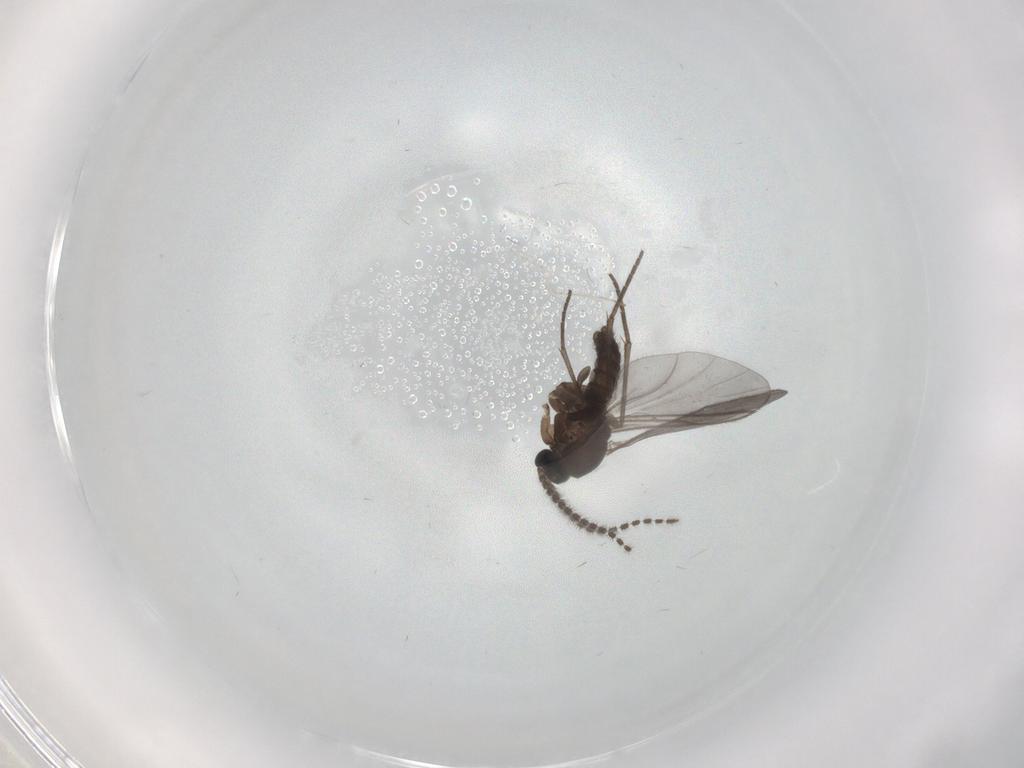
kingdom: Animalia
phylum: Arthropoda
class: Insecta
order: Diptera
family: Sciaridae
